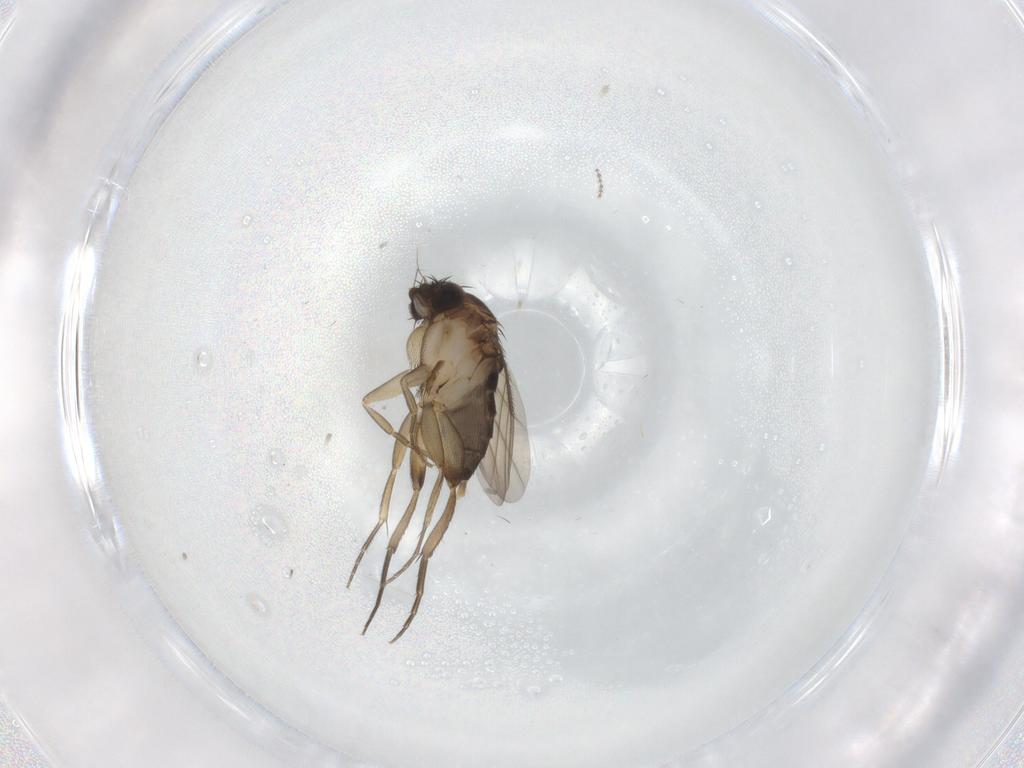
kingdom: Animalia
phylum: Arthropoda
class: Insecta
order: Diptera
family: Phoridae
